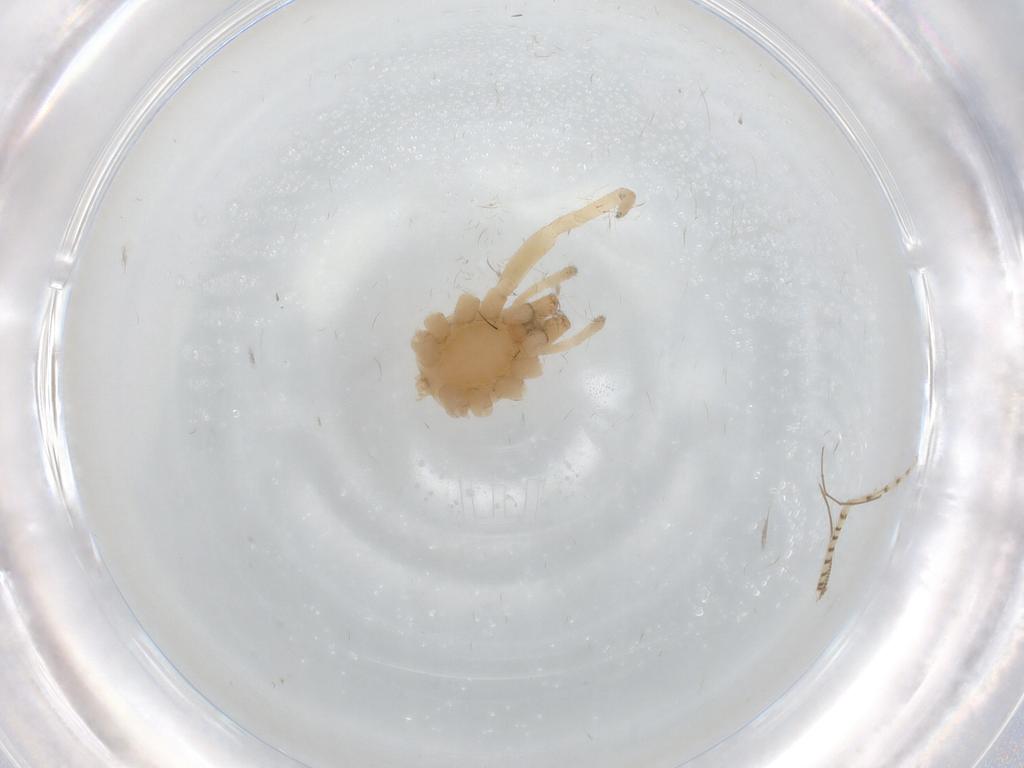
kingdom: Animalia
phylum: Arthropoda
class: Arachnida
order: Araneae
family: Clubionidae
